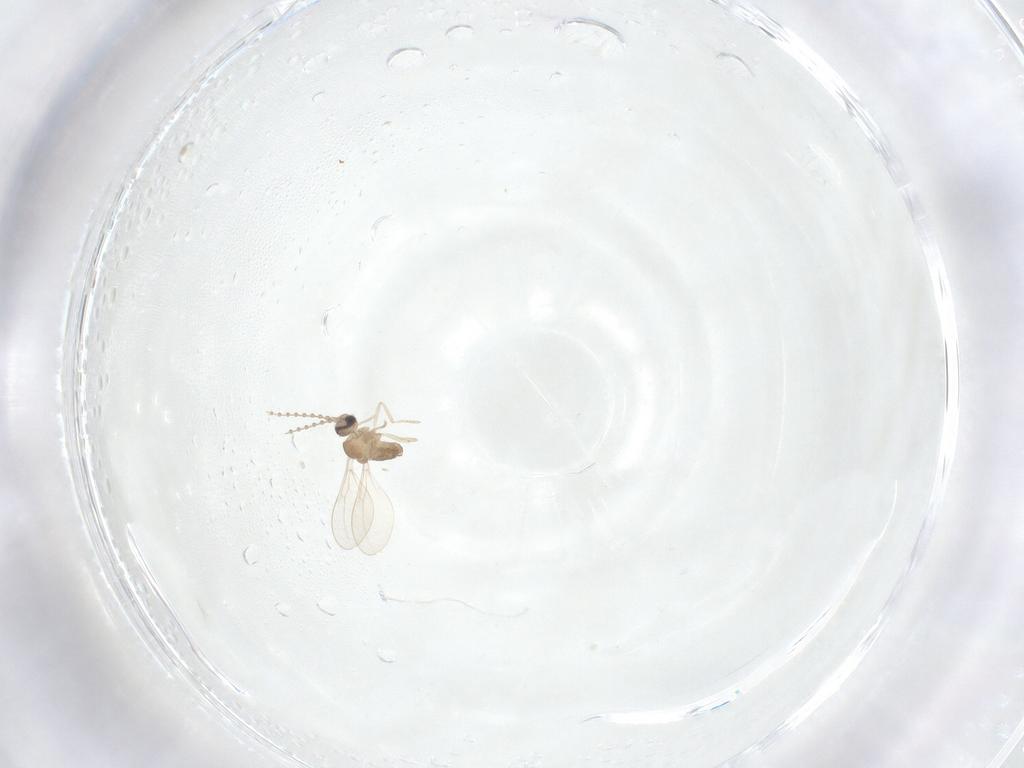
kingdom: Animalia
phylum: Arthropoda
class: Insecta
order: Diptera
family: Cecidomyiidae
